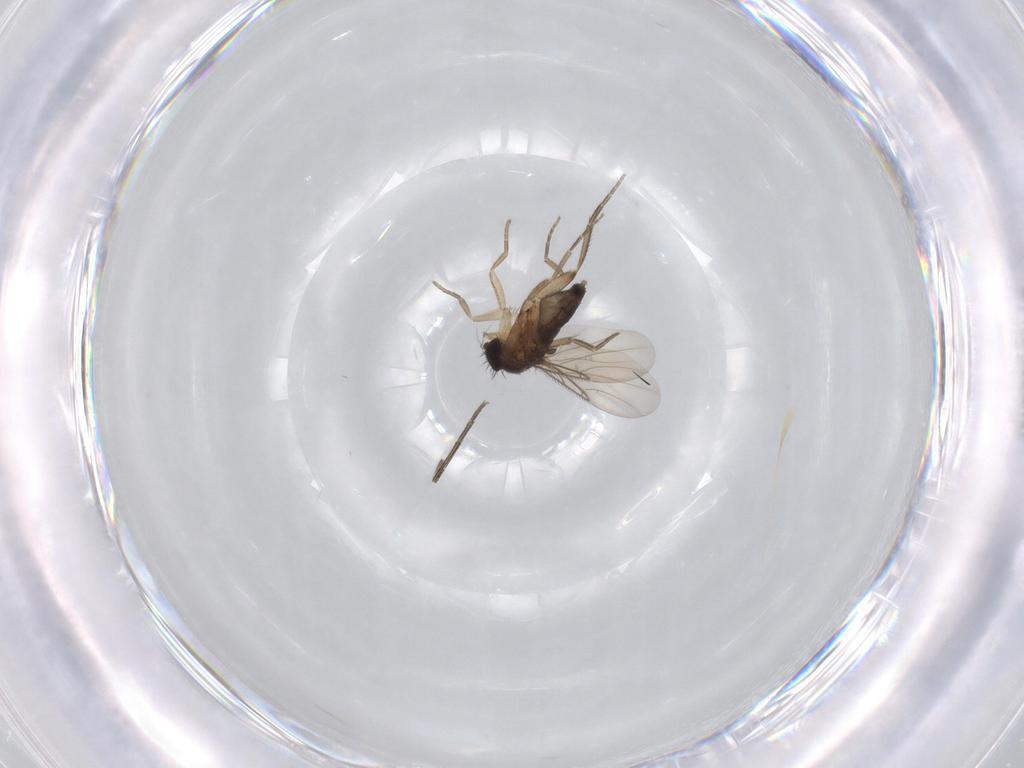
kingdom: Animalia
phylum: Arthropoda
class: Insecta
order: Diptera
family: Phoridae
